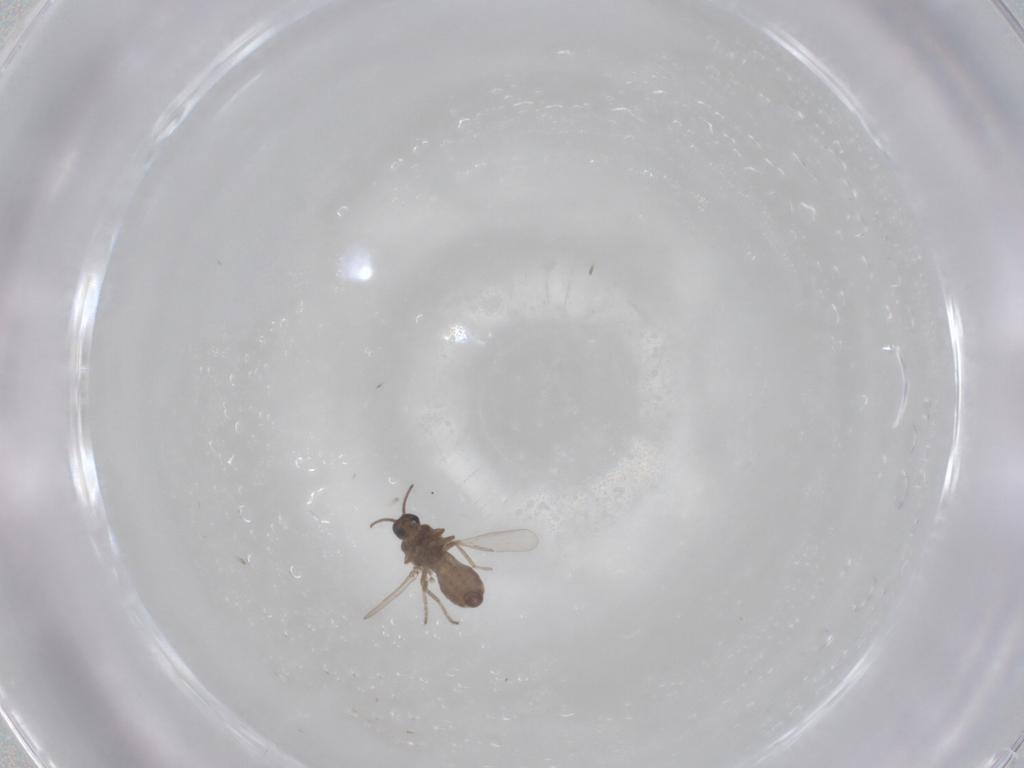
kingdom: Animalia
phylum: Arthropoda
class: Insecta
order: Diptera
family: Ceratopogonidae
